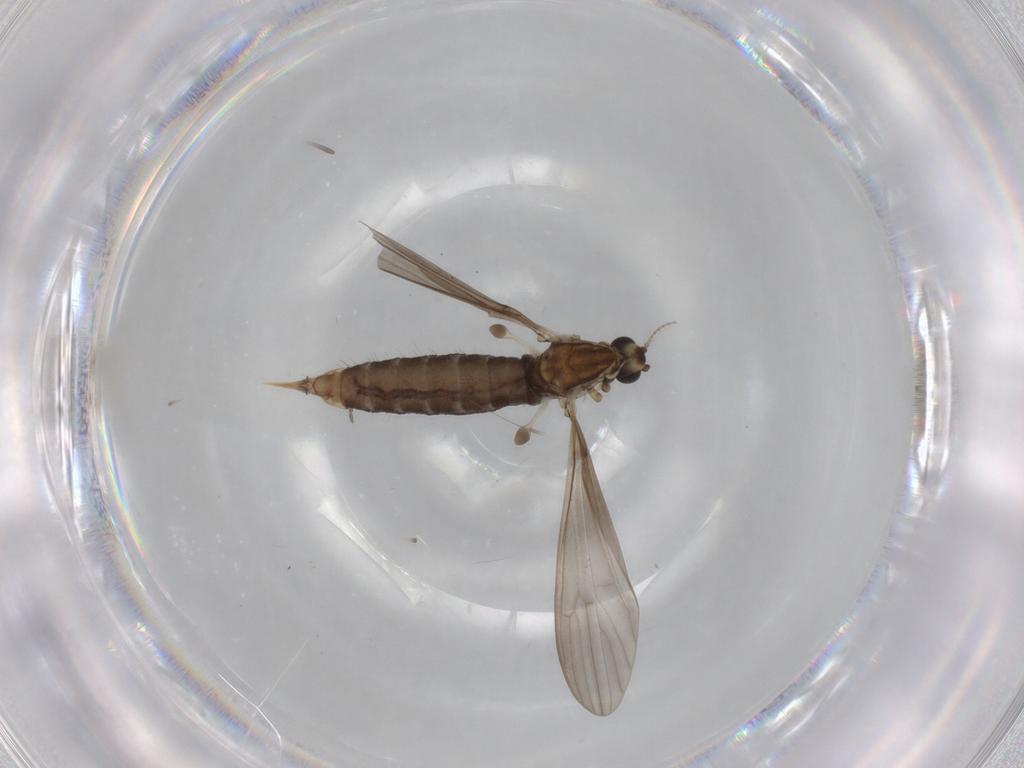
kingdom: Animalia
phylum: Arthropoda
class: Insecta
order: Diptera
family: Limoniidae
